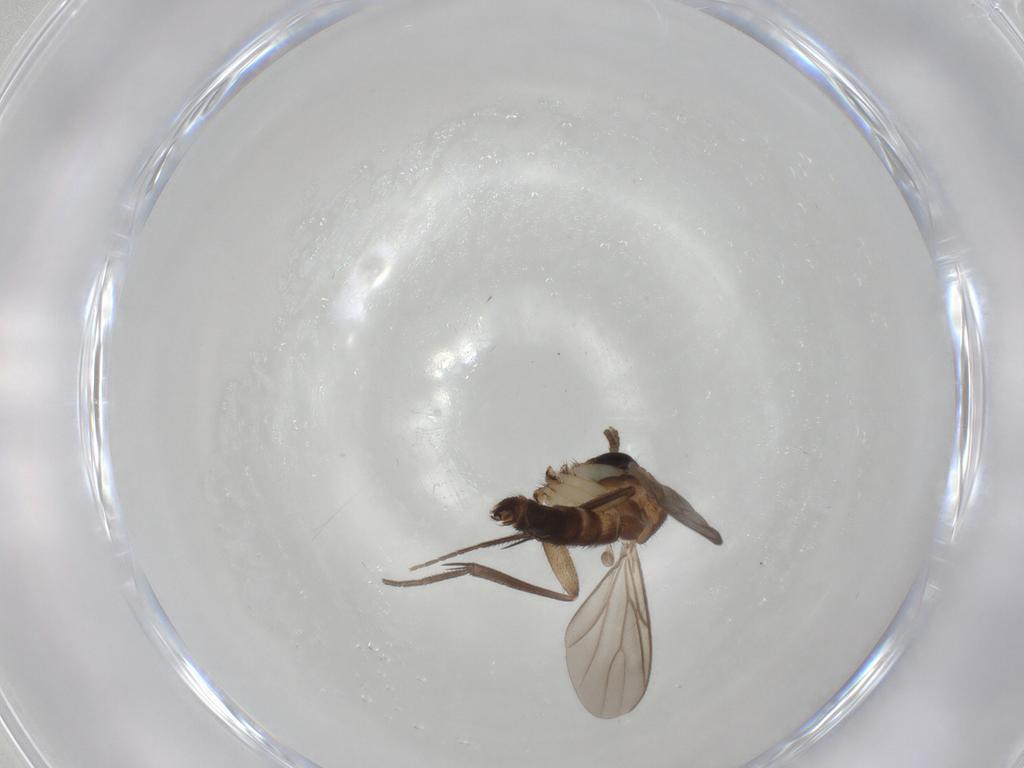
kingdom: Animalia
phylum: Arthropoda
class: Insecta
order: Diptera
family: Mycetophilidae
